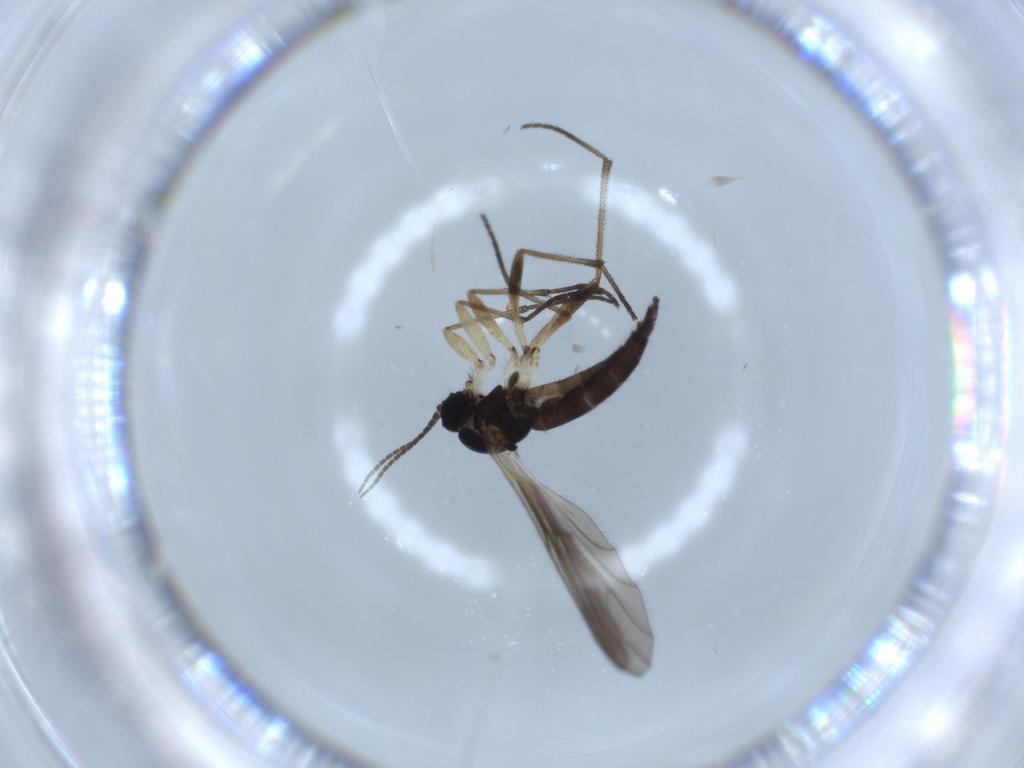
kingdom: Animalia
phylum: Arthropoda
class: Insecta
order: Diptera
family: Sciaridae
